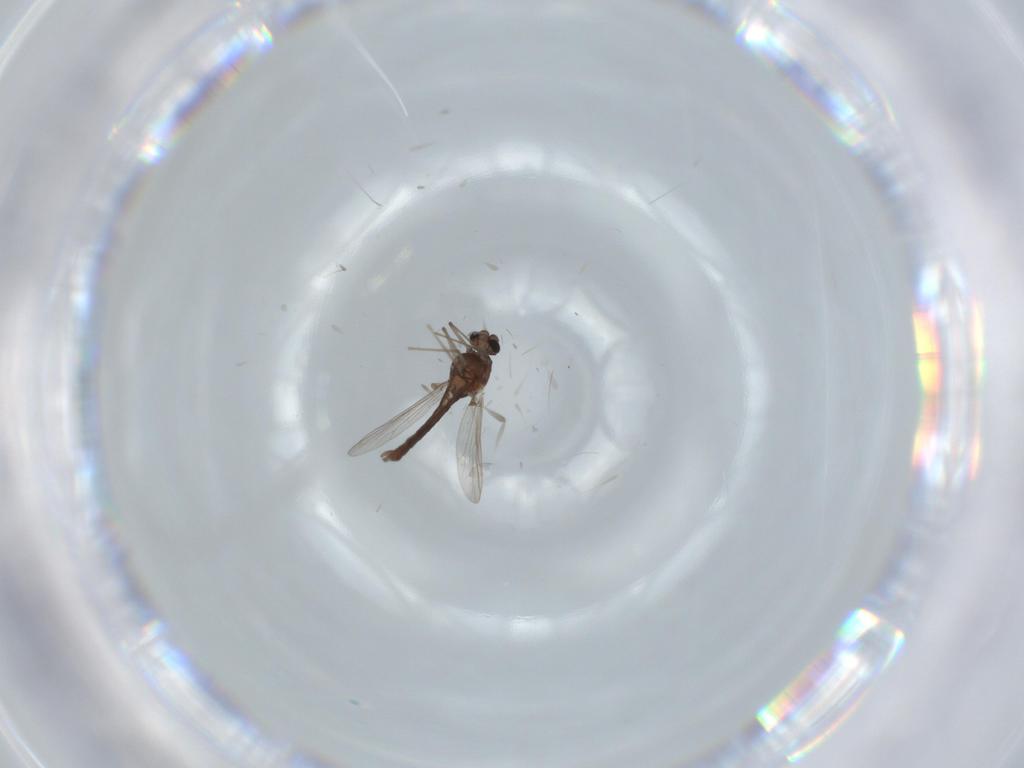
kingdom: Animalia
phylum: Arthropoda
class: Insecta
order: Diptera
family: Chironomidae
